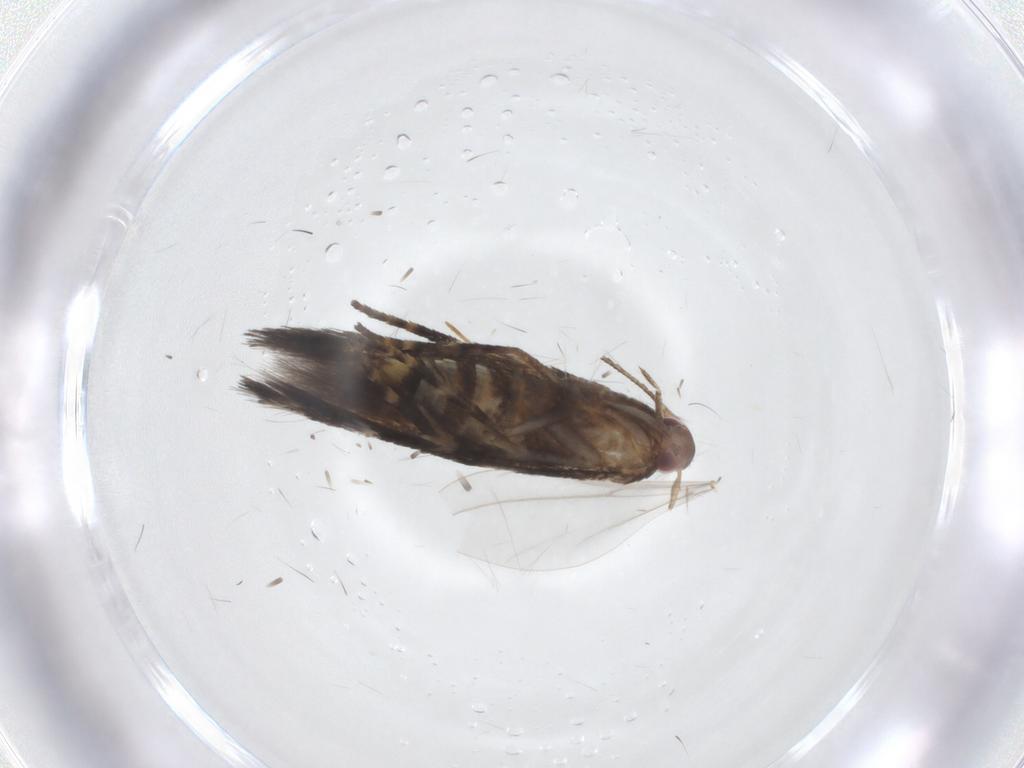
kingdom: Animalia
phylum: Arthropoda
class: Insecta
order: Lepidoptera
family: Momphidae
